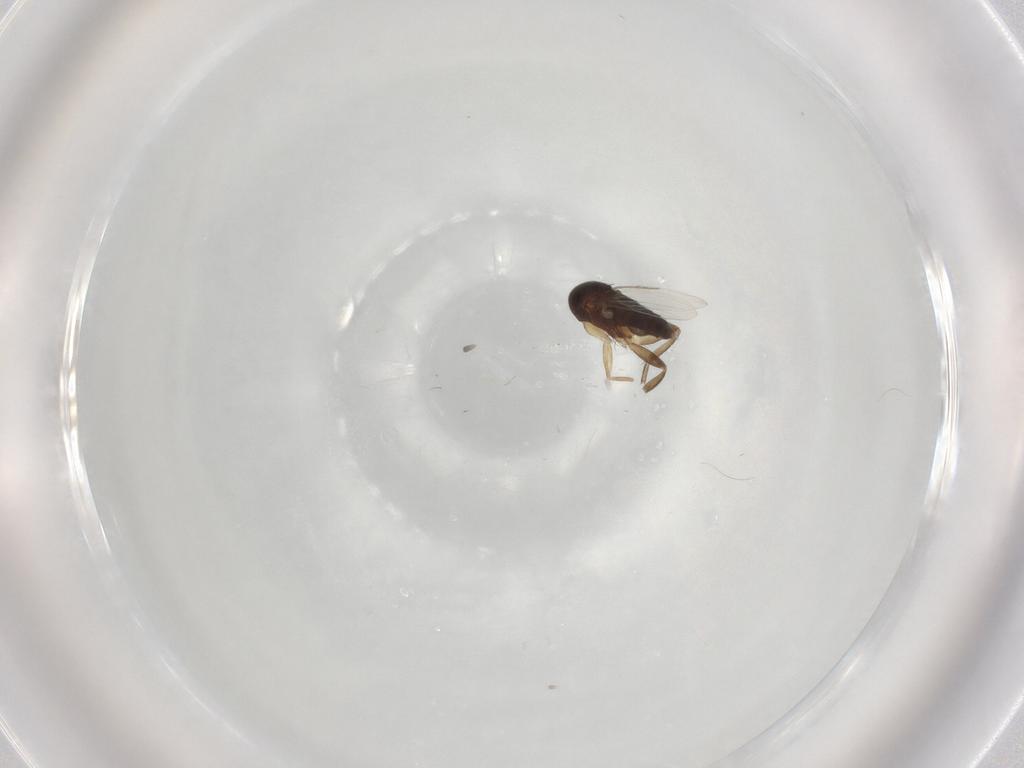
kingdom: Animalia
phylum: Arthropoda
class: Insecta
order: Diptera
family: Phoridae
